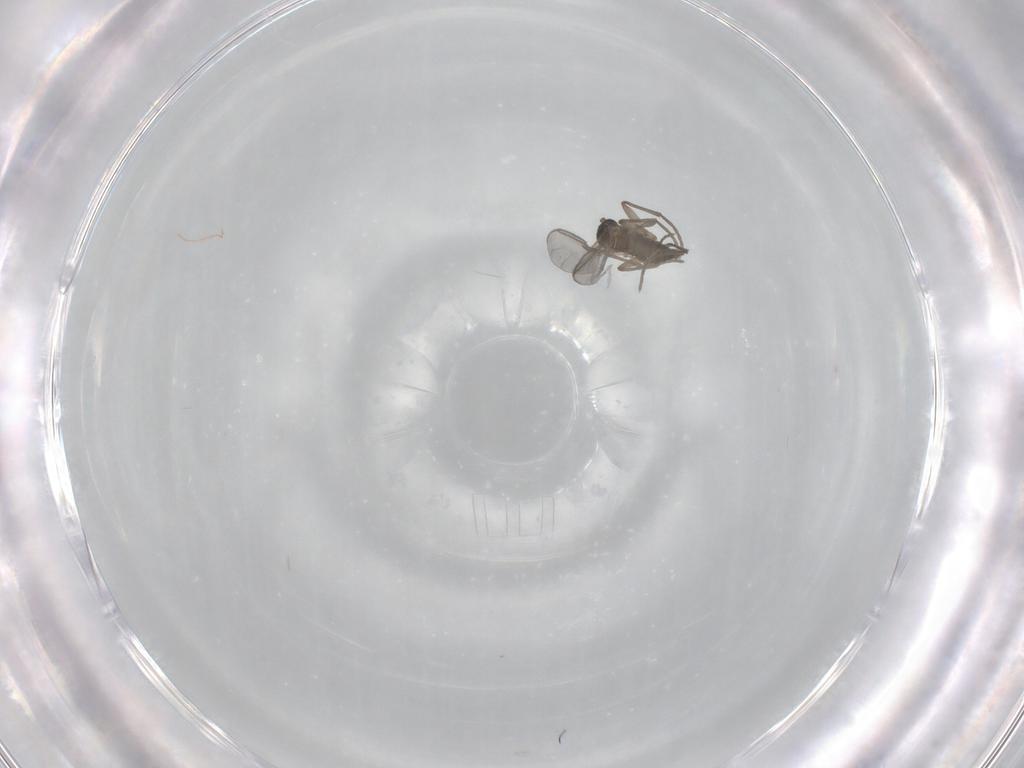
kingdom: Animalia
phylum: Arthropoda
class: Insecta
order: Diptera
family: Sciaridae
